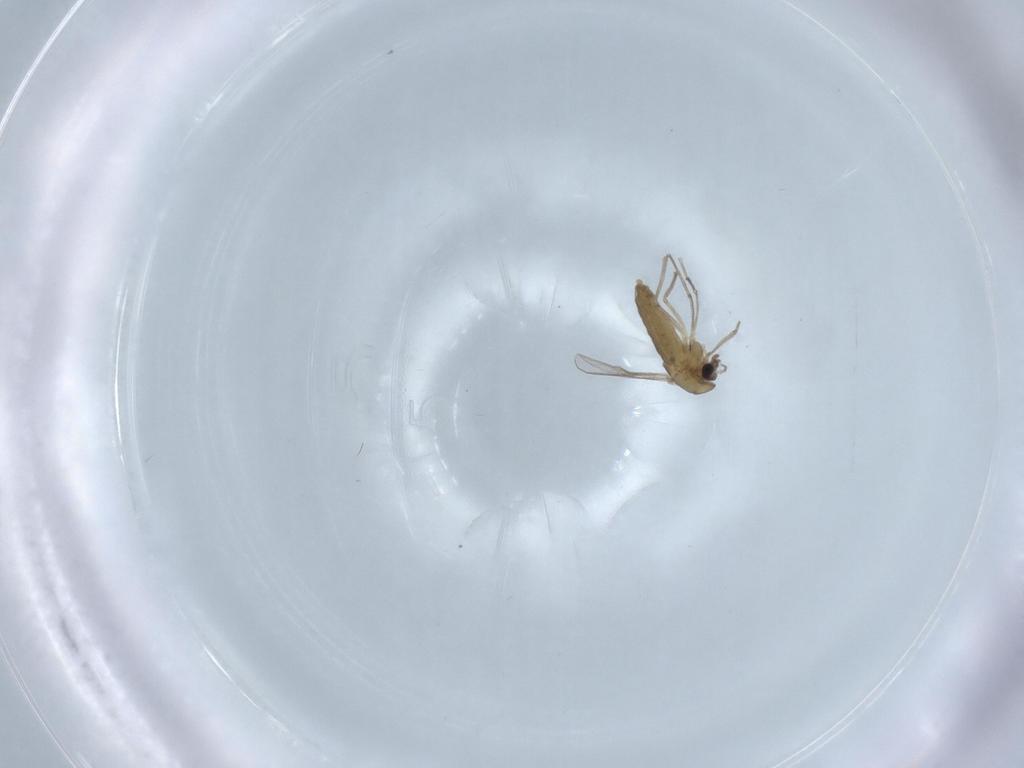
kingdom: Animalia
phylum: Arthropoda
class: Insecta
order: Diptera
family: Chironomidae
